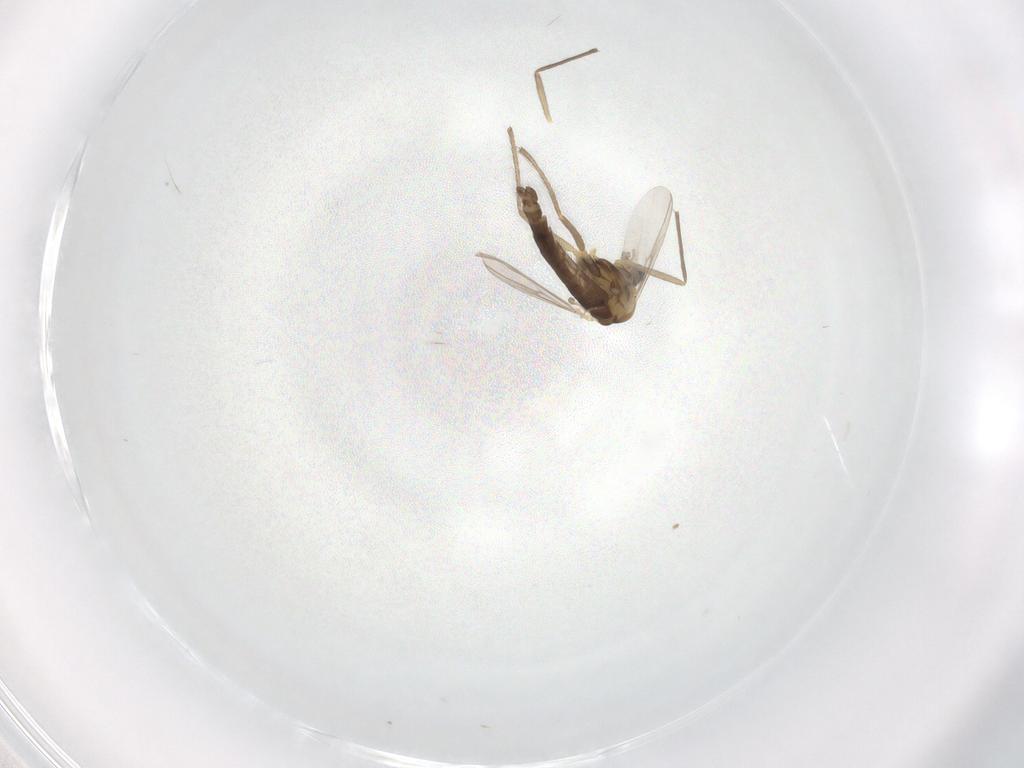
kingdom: Animalia
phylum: Arthropoda
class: Insecta
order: Diptera
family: Chironomidae
